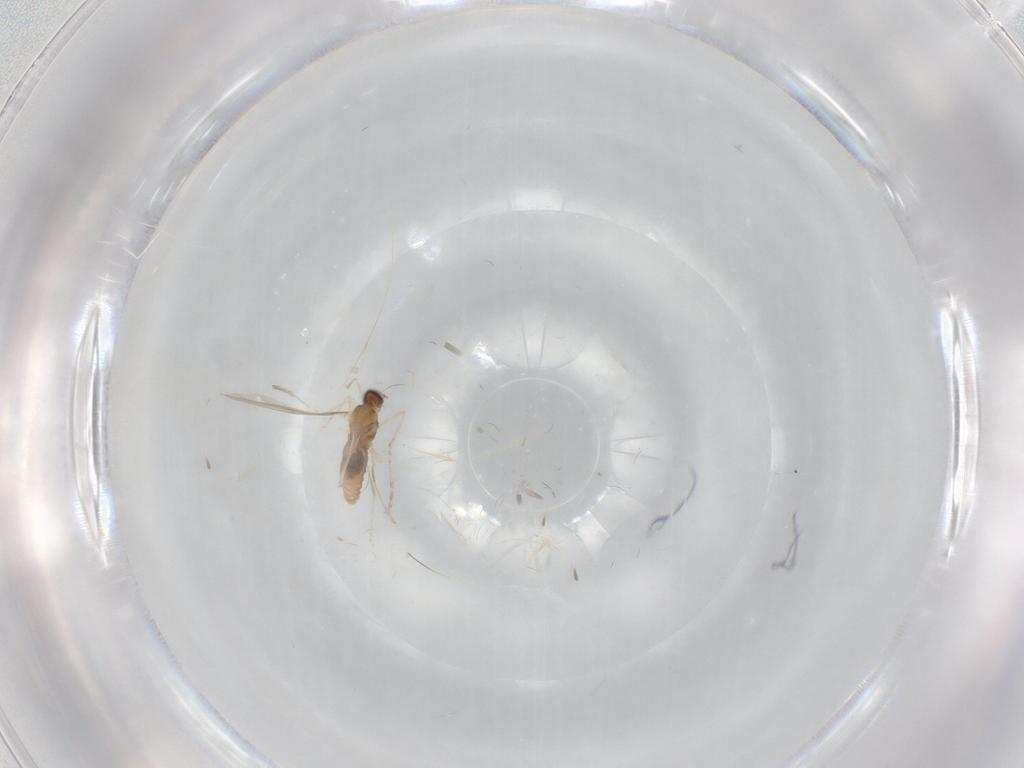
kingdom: Animalia
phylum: Arthropoda
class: Insecta
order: Diptera
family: Cecidomyiidae
